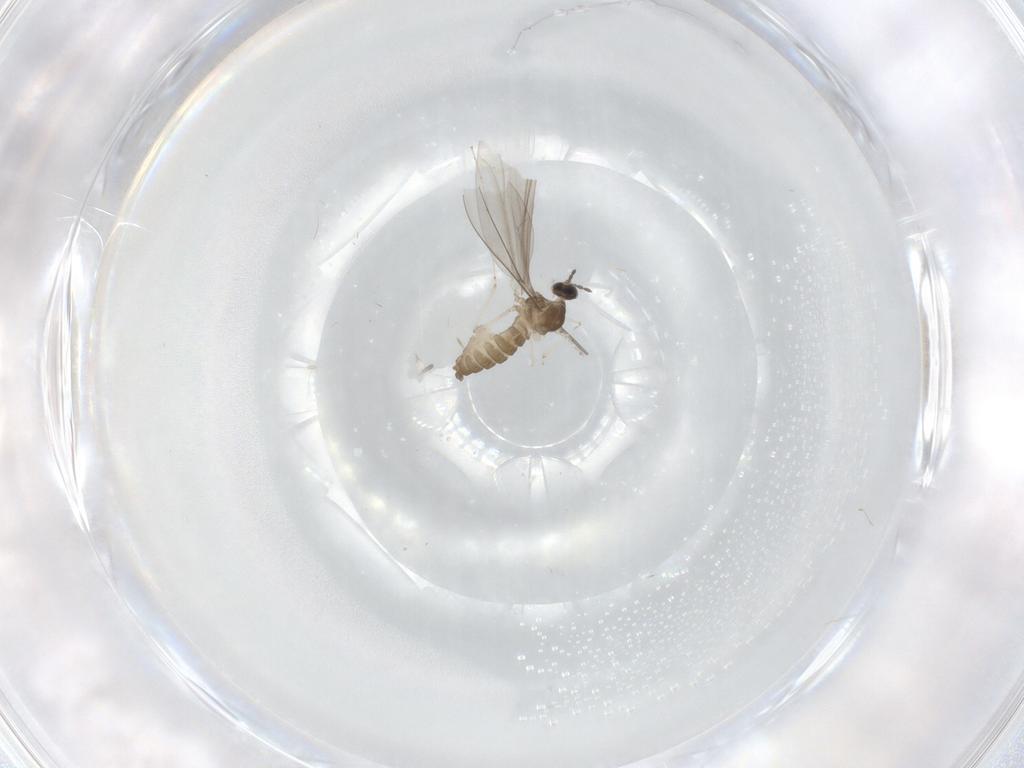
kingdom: Animalia
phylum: Arthropoda
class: Insecta
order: Diptera
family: Cecidomyiidae
